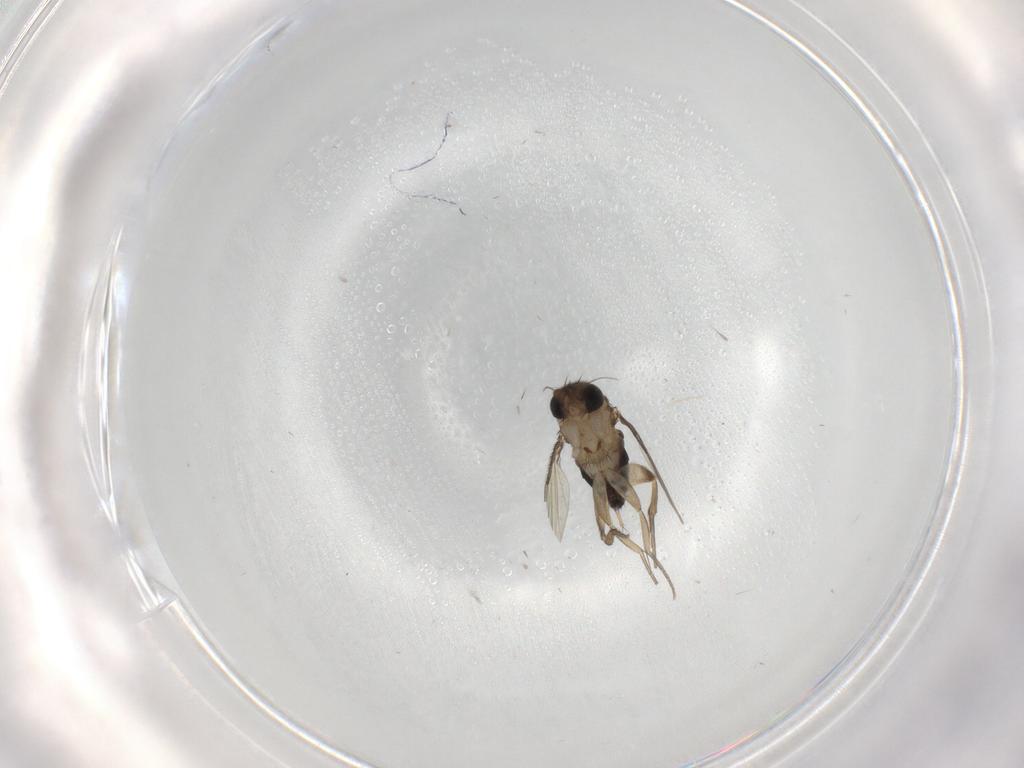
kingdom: Animalia
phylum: Arthropoda
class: Insecta
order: Diptera
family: Phoridae
